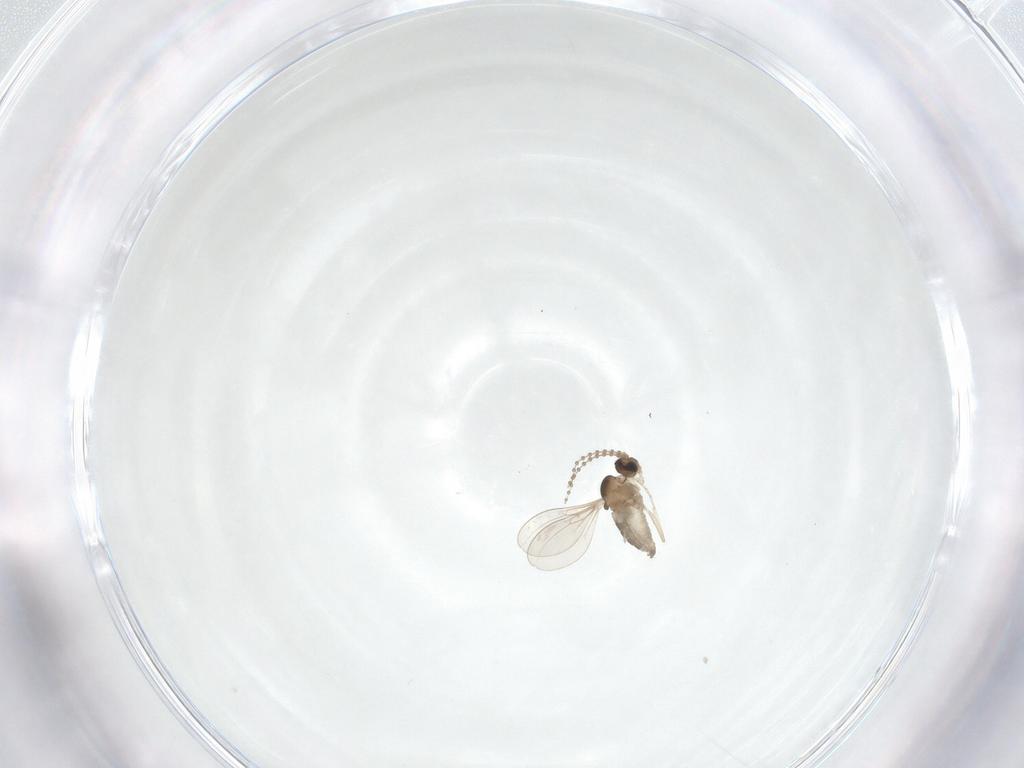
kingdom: Animalia
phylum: Arthropoda
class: Insecta
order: Diptera
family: Cecidomyiidae
